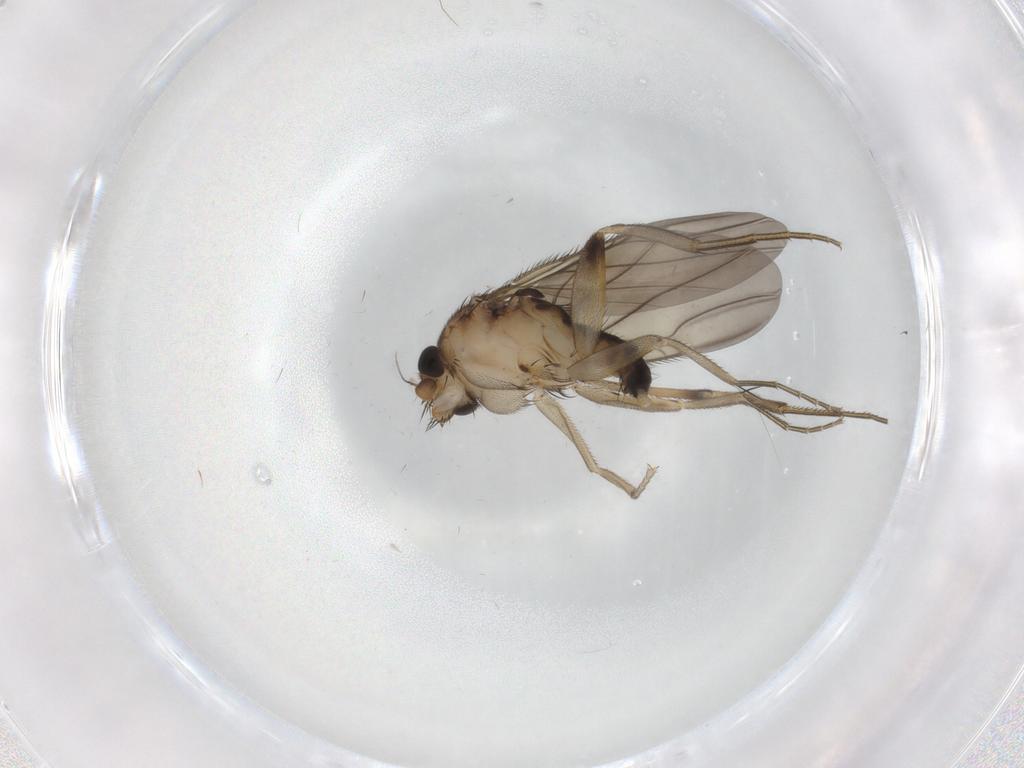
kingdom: Animalia
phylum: Arthropoda
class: Insecta
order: Diptera
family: Phoridae
